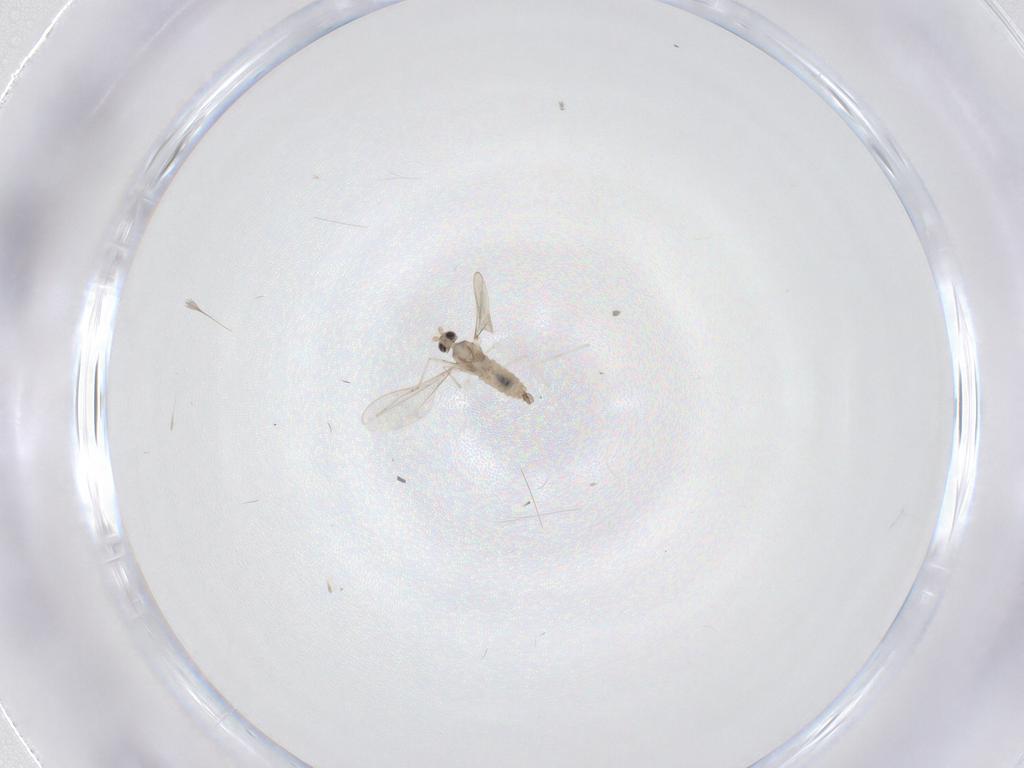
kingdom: Animalia
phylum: Arthropoda
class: Insecta
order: Diptera
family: Cecidomyiidae
